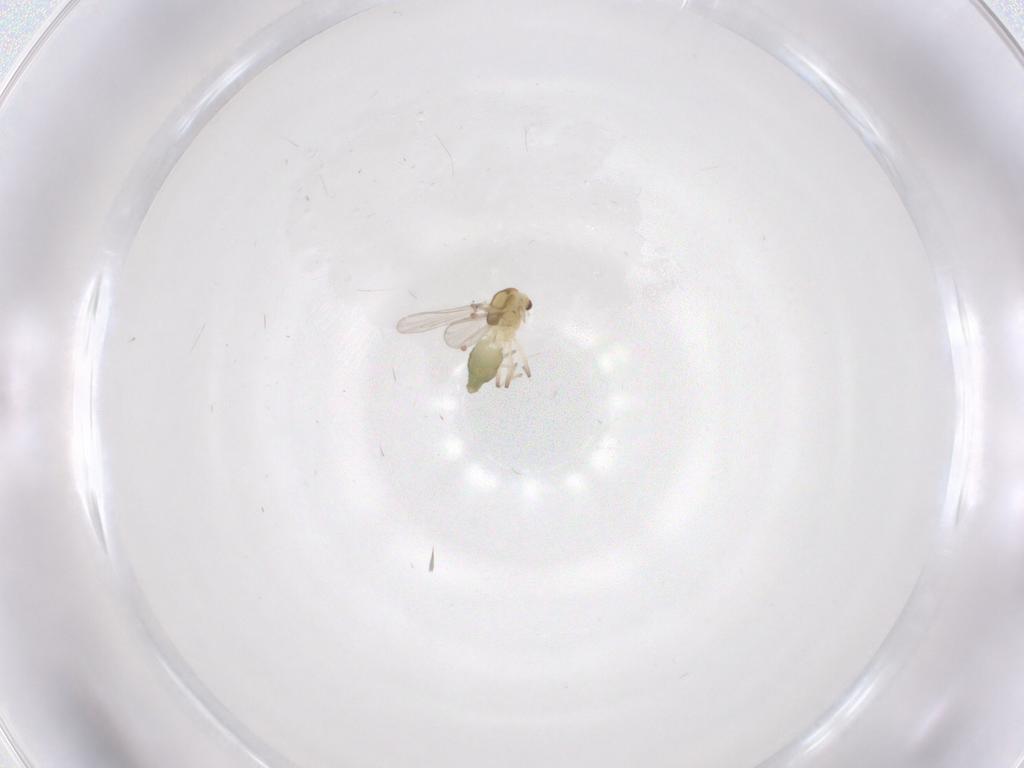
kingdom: Animalia
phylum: Arthropoda
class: Insecta
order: Diptera
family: Chironomidae
